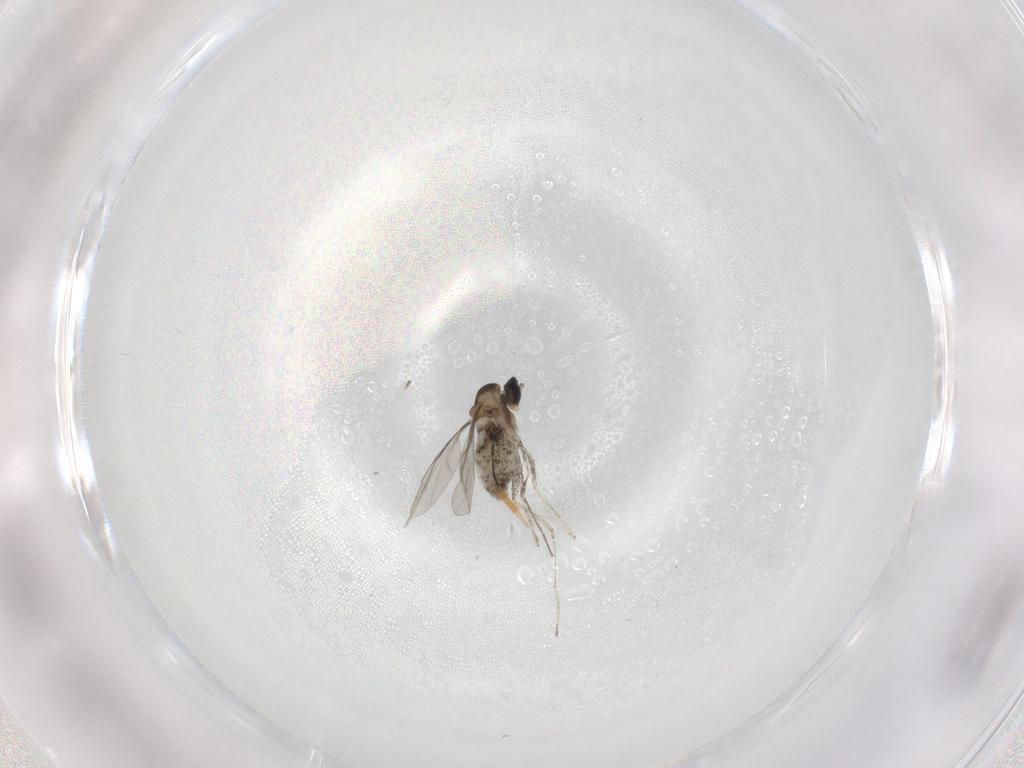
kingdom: Animalia
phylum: Arthropoda
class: Insecta
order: Diptera
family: Cecidomyiidae
